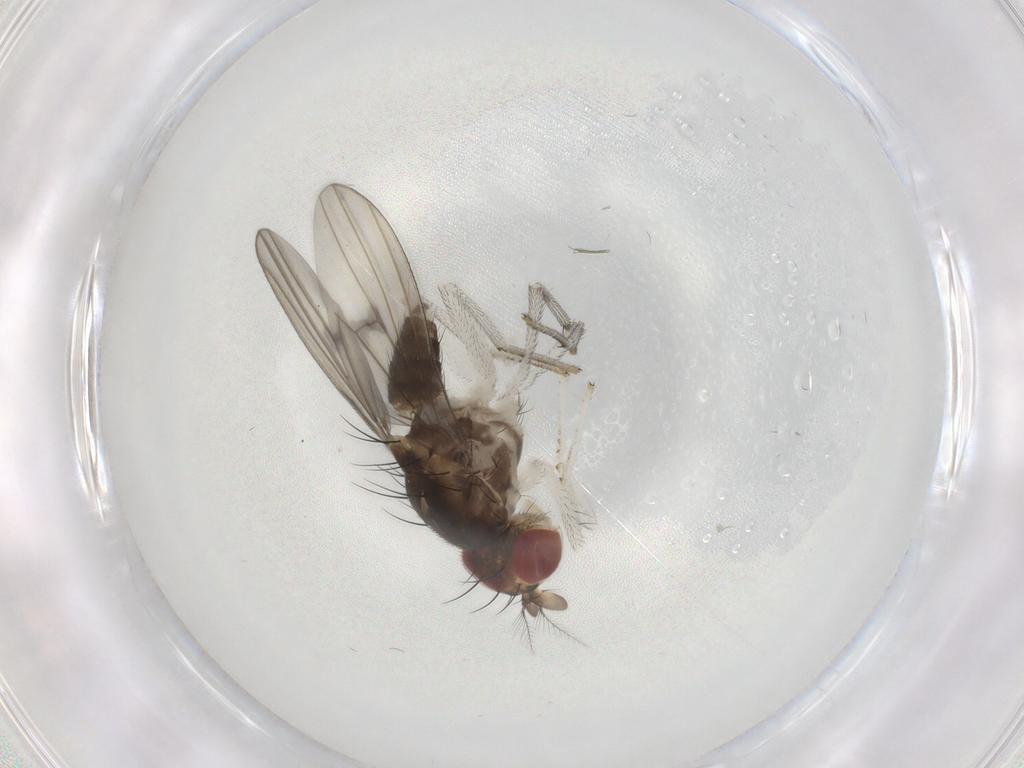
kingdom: Animalia
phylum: Arthropoda
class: Insecta
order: Diptera
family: Lauxaniidae
